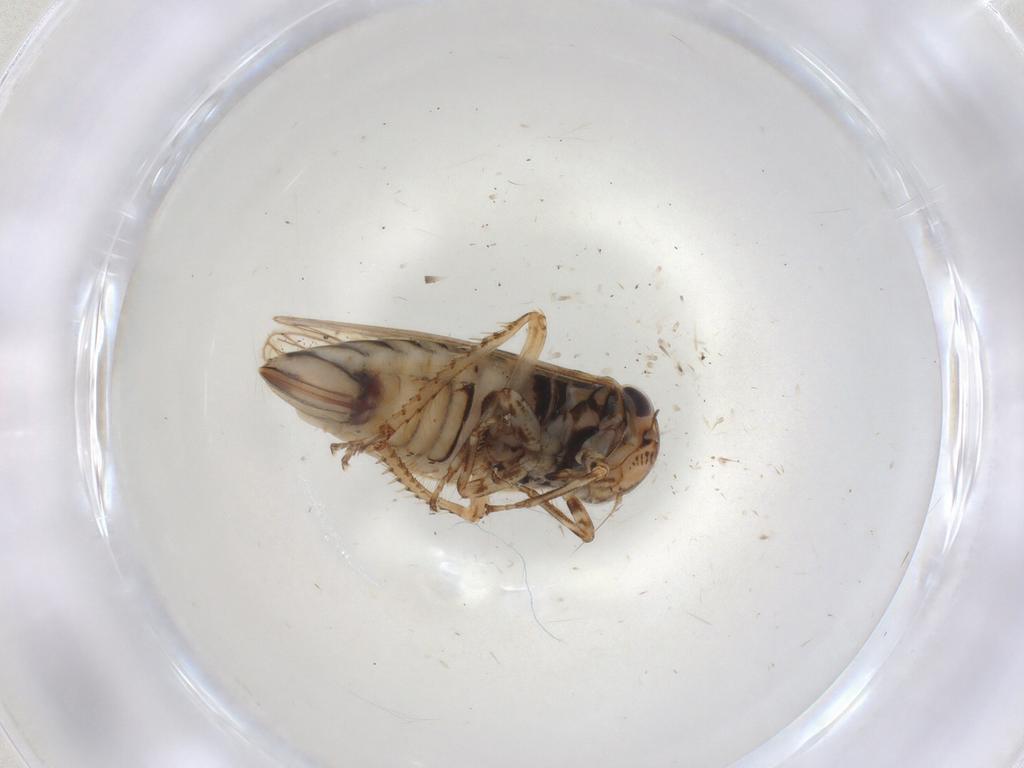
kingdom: Animalia
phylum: Arthropoda
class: Insecta
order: Hemiptera
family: Cicadellidae
